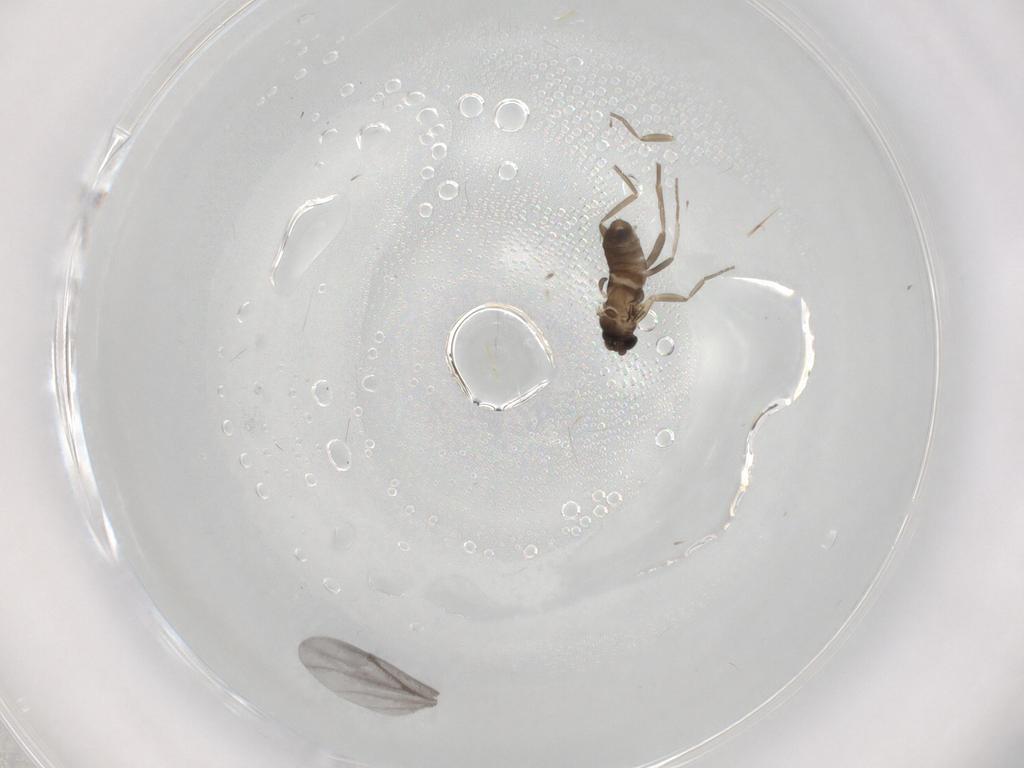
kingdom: Animalia
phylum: Arthropoda
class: Insecta
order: Diptera
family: Phoridae
